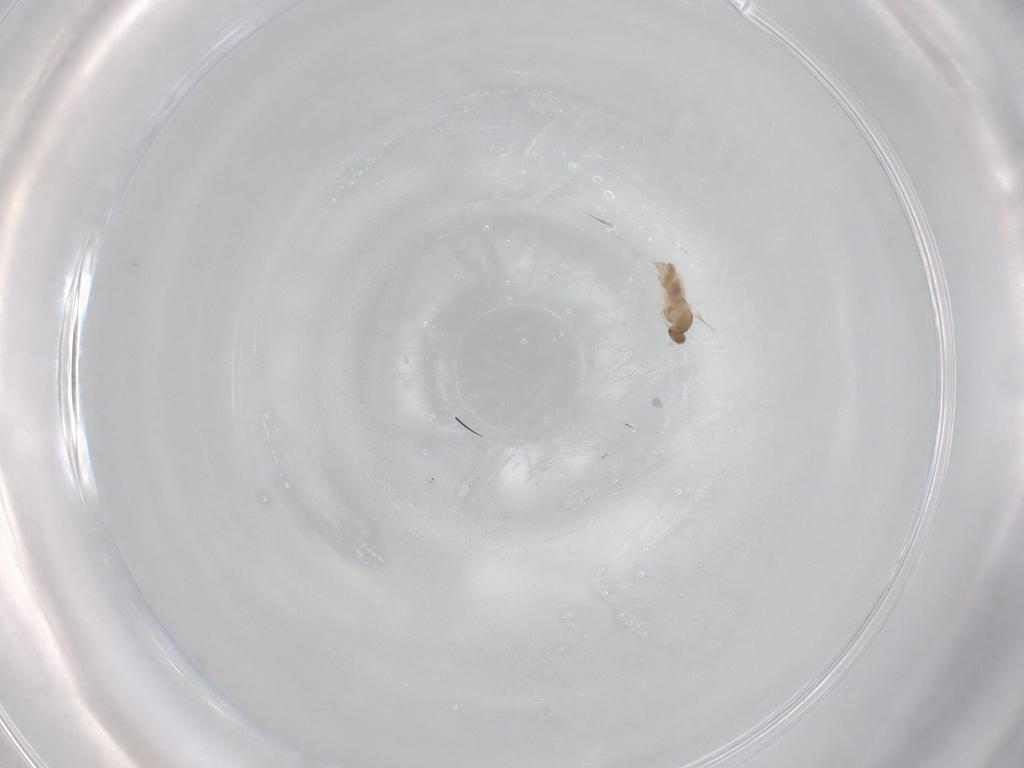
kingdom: Animalia
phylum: Arthropoda
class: Insecta
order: Diptera
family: Cecidomyiidae
